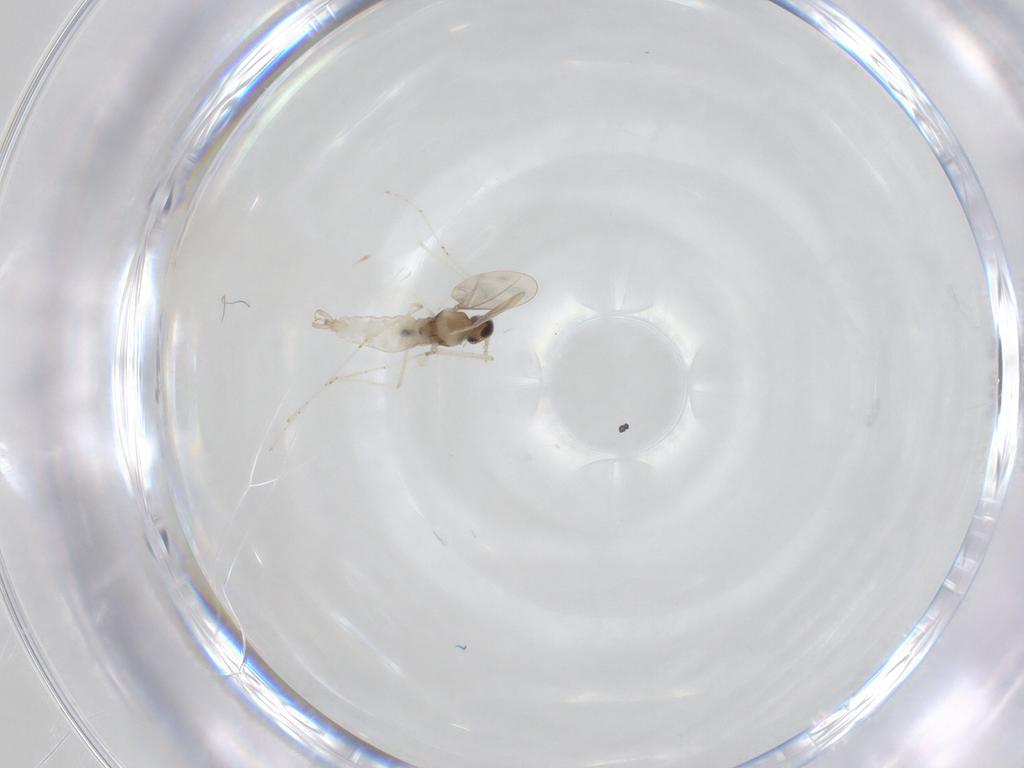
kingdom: Animalia
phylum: Arthropoda
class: Insecta
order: Diptera
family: Cecidomyiidae
